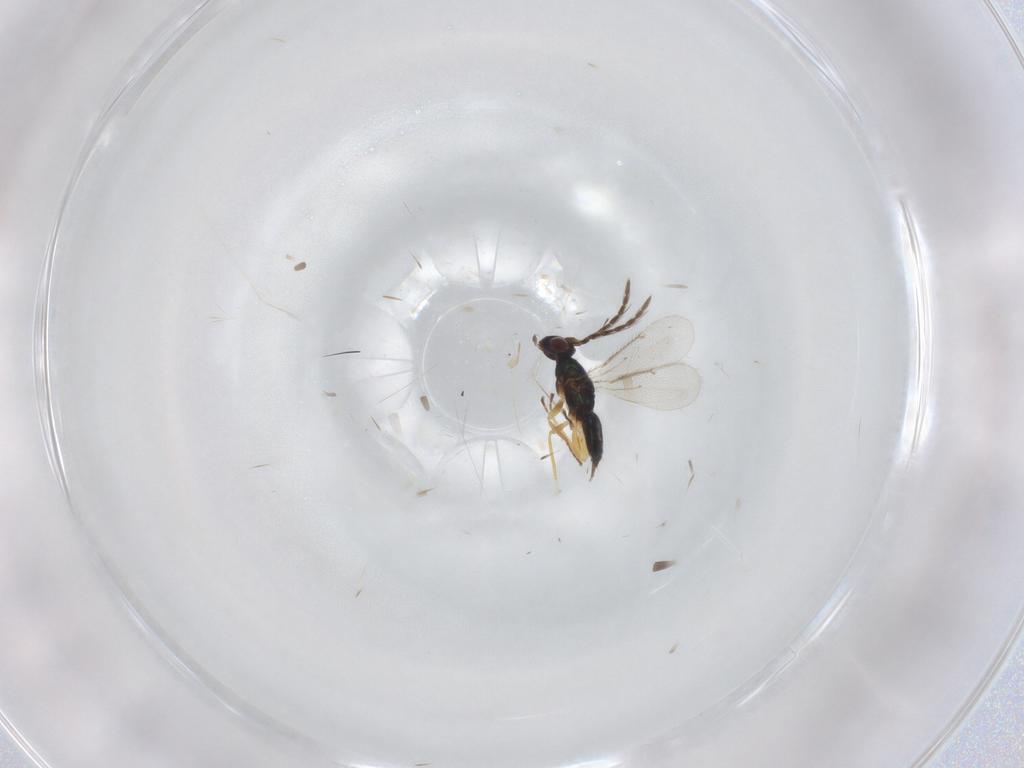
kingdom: Animalia
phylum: Arthropoda
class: Insecta
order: Hymenoptera
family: Eulophidae
